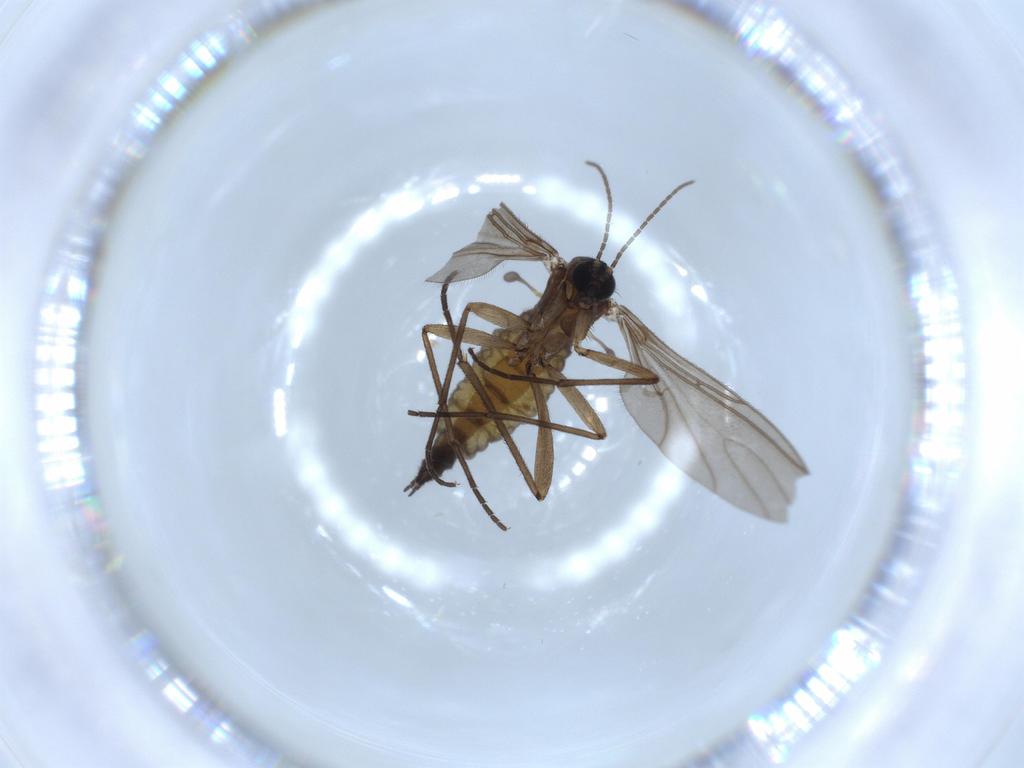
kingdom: Animalia
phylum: Arthropoda
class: Insecta
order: Diptera
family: Sciaridae
